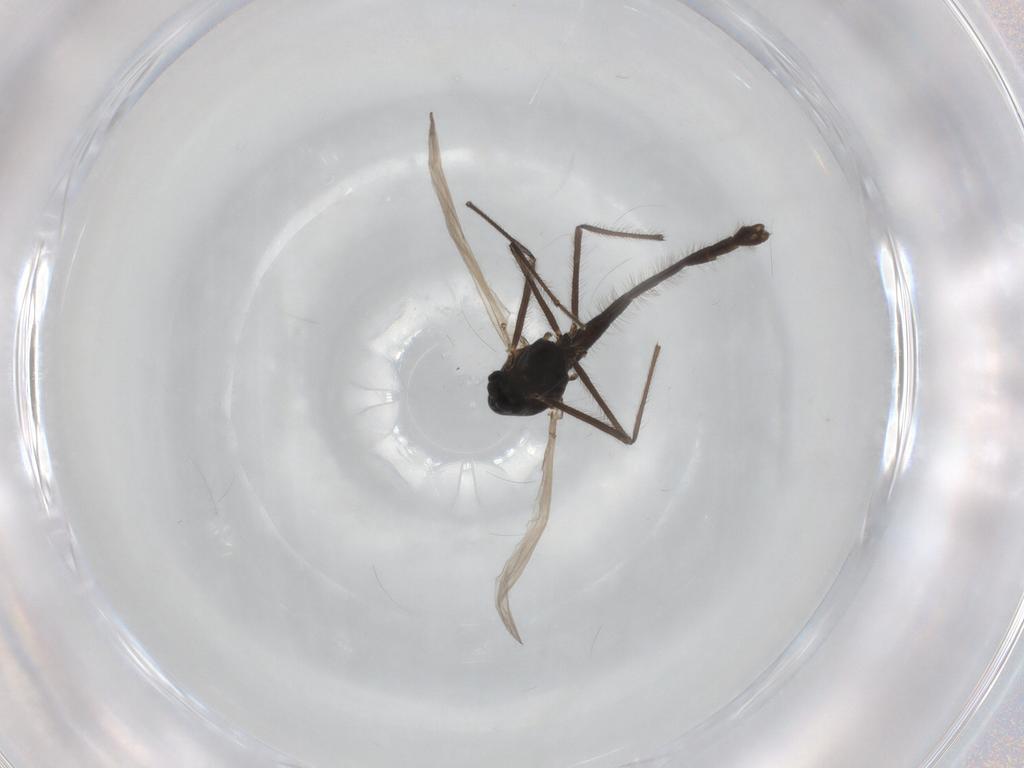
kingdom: Animalia
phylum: Arthropoda
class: Insecta
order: Diptera
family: Chironomidae
